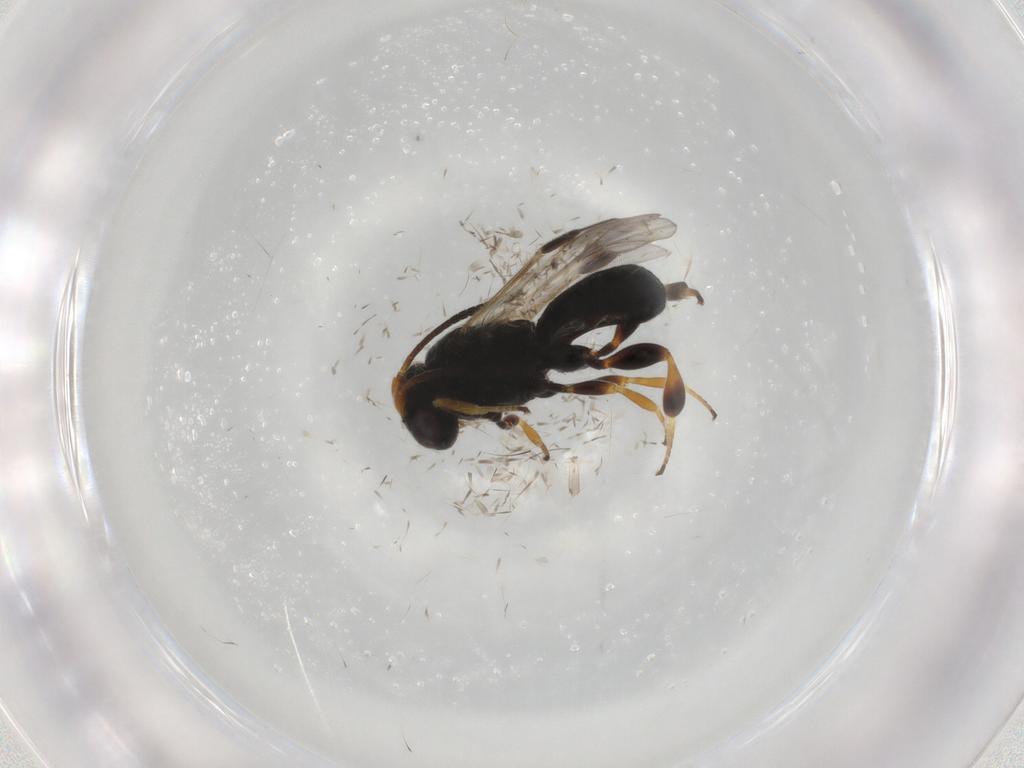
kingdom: Animalia
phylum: Arthropoda
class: Insecta
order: Hymenoptera
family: Braconidae
